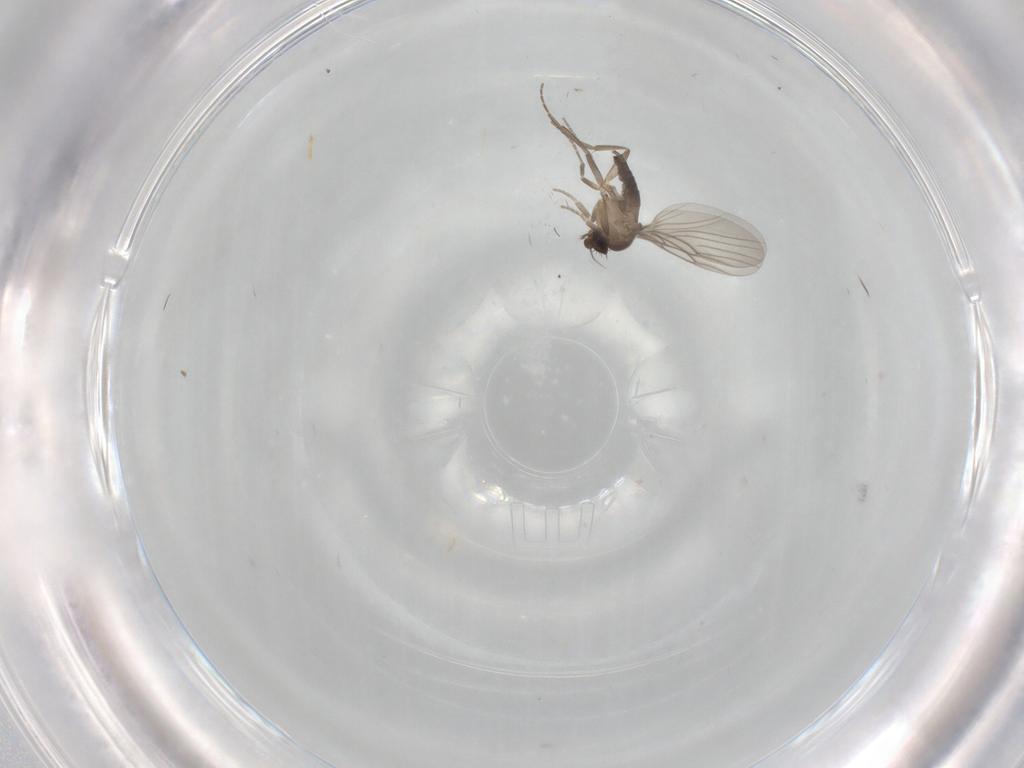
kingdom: Animalia
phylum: Arthropoda
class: Insecta
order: Diptera
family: Phoridae
